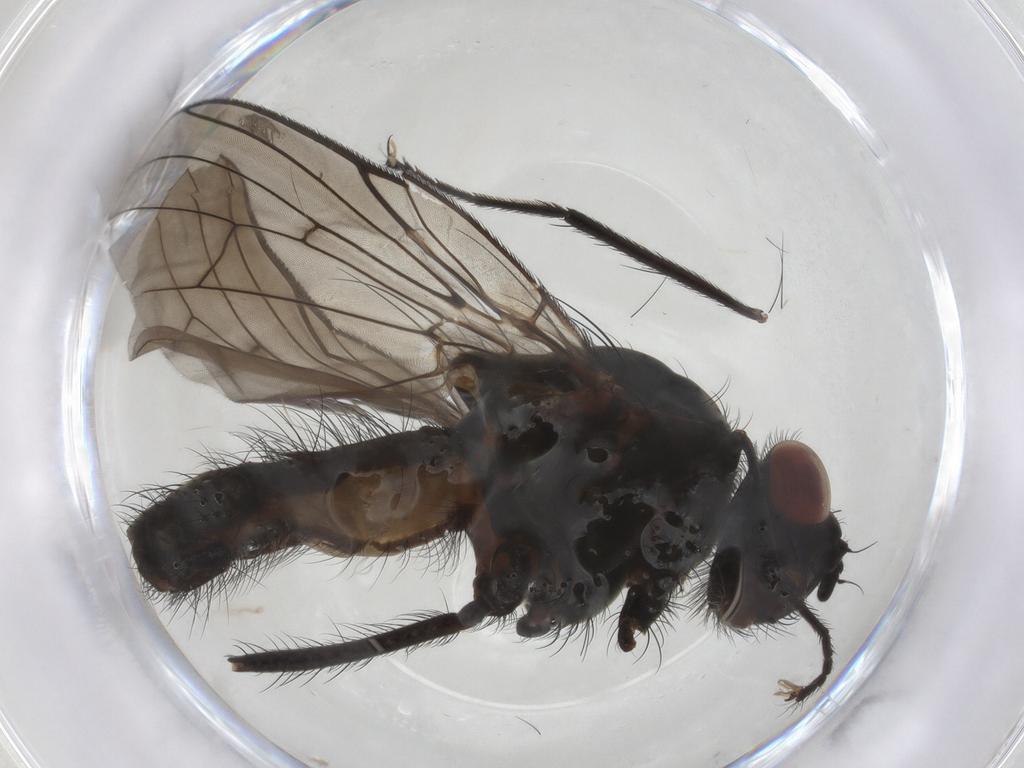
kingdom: Animalia
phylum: Arthropoda
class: Insecta
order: Diptera
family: Anthomyiidae
